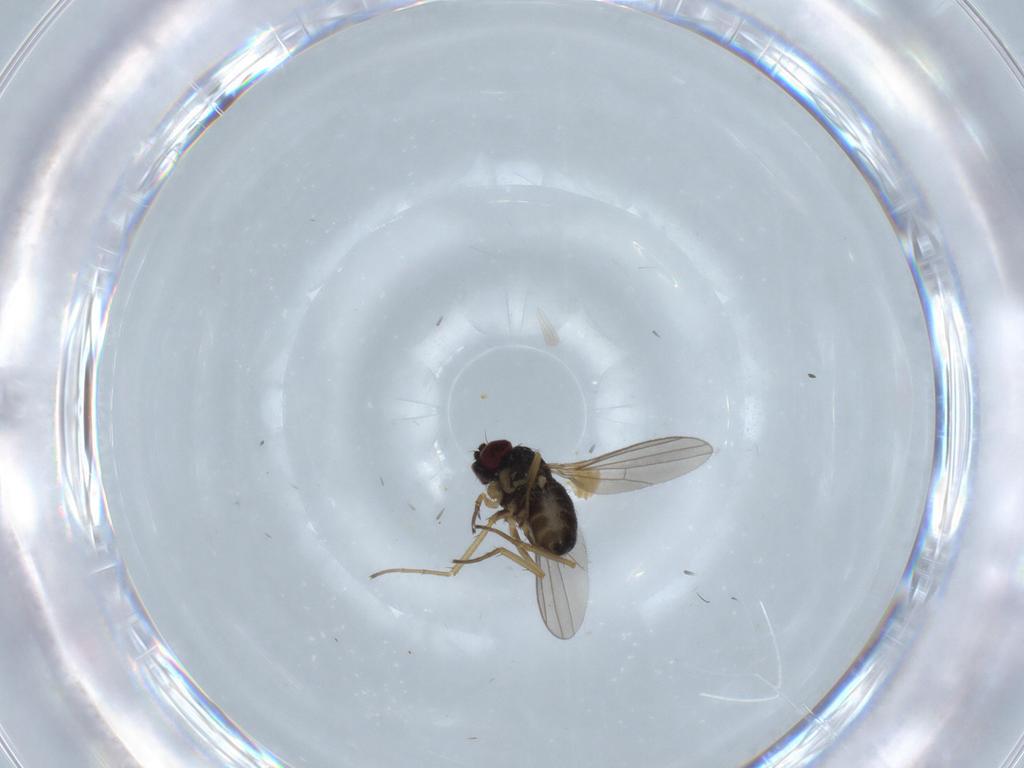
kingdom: Animalia
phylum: Arthropoda
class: Insecta
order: Diptera
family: Dolichopodidae
